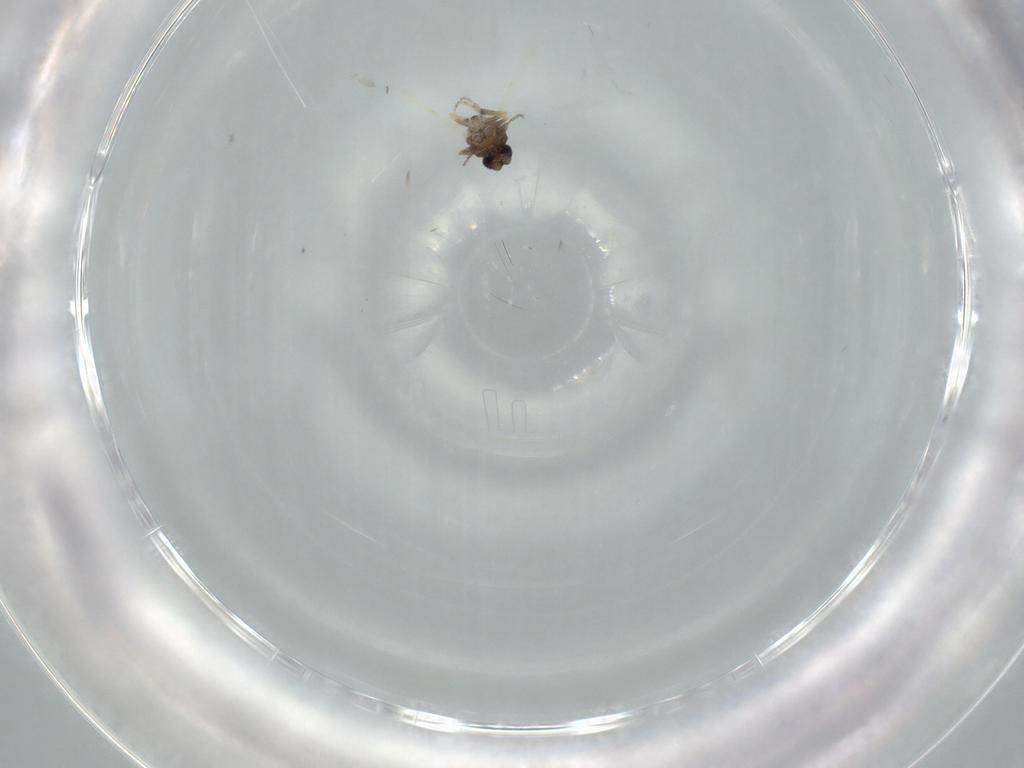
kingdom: Animalia
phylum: Arthropoda
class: Insecta
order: Diptera
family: Ceratopogonidae
